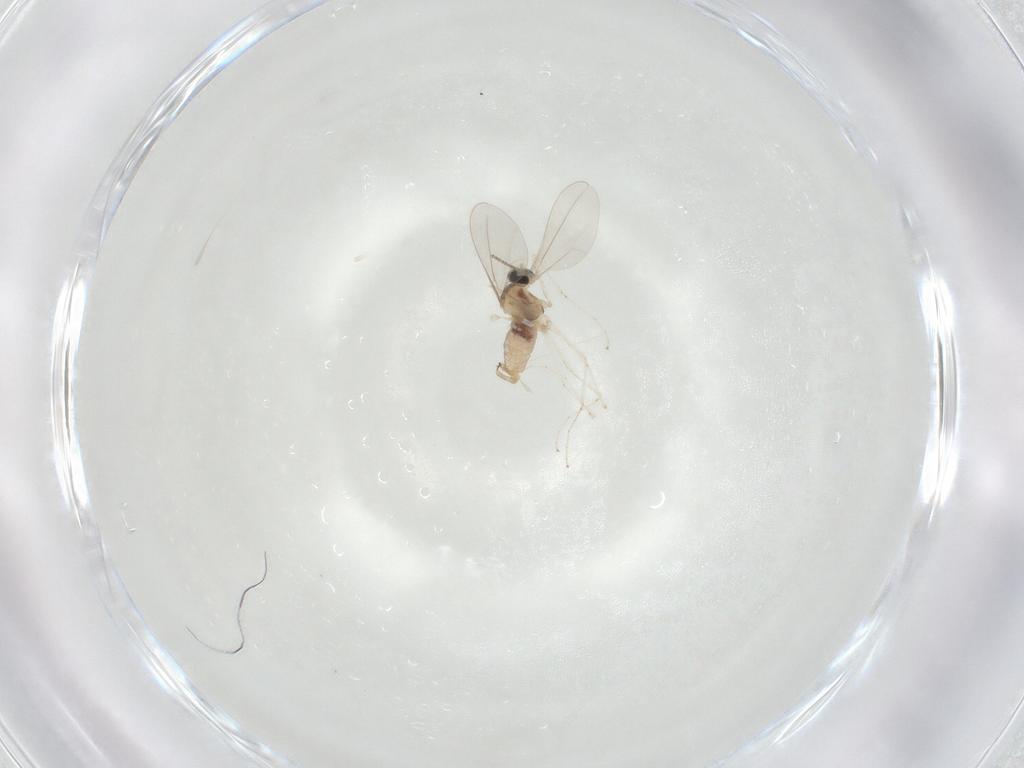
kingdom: Animalia
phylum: Arthropoda
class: Insecta
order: Diptera
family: Cecidomyiidae
